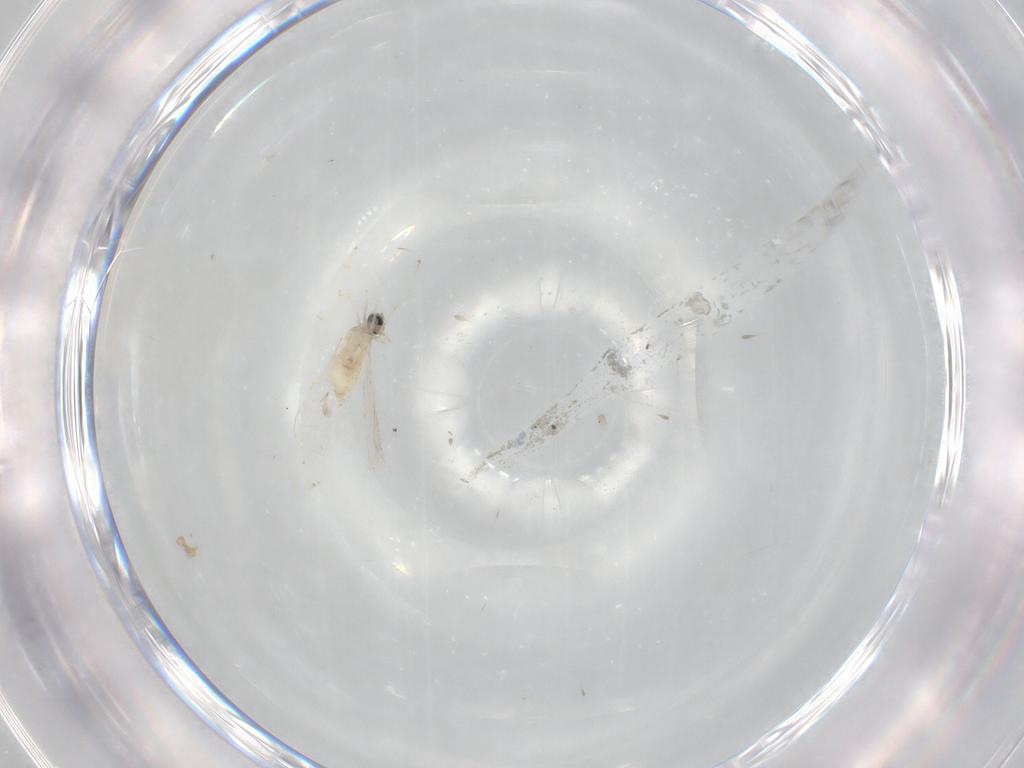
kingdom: Animalia
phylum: Arthropoda
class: Insecta
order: Diptera
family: Cecidomyiidae
